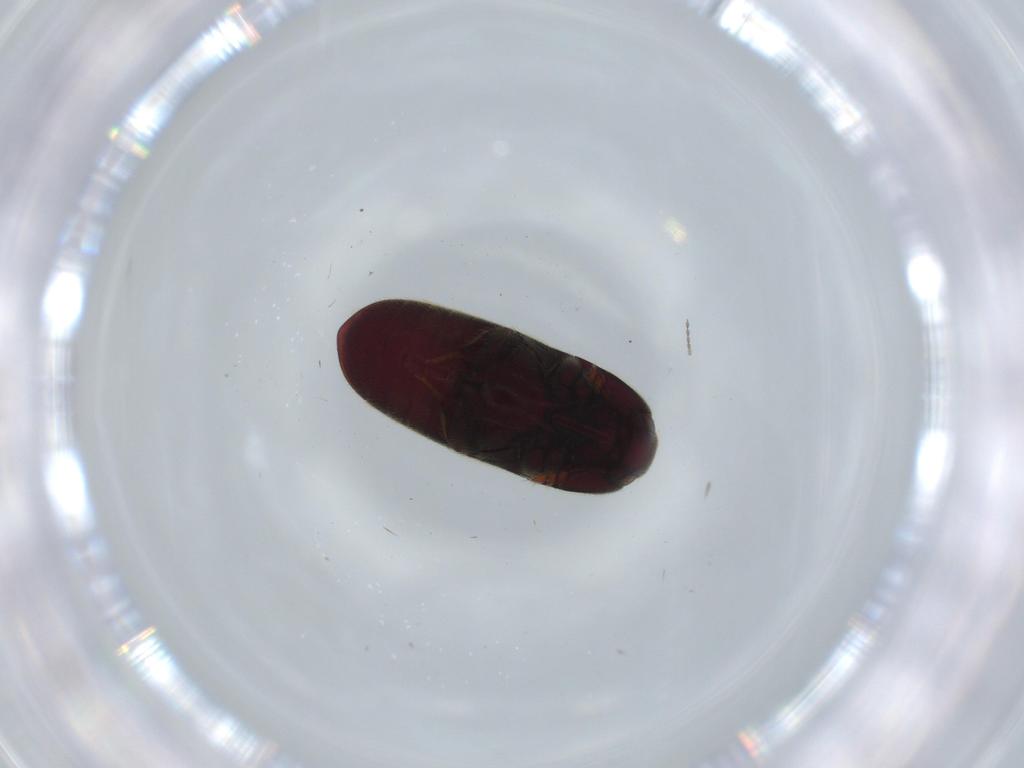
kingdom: Animalia
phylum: Arthropoda
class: Insecta
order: Coleoptera
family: Throscidae
